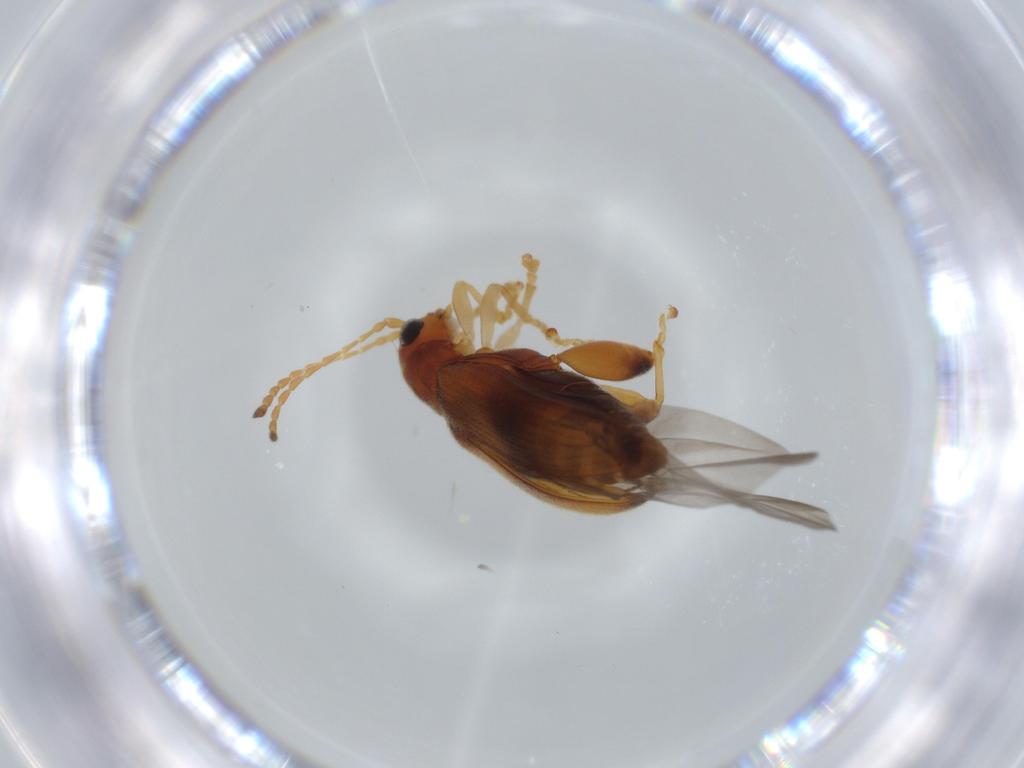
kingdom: Animalia
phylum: Arthropoda
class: Insecta
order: Coleoptera
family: Chrysomelidae
